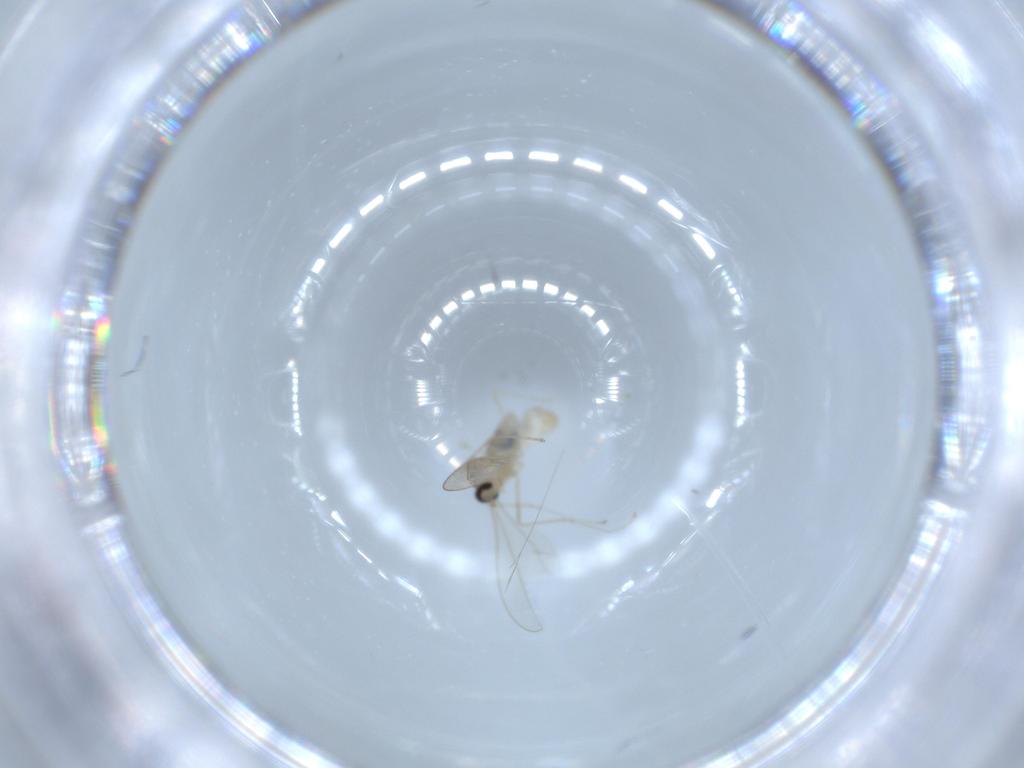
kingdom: Animalia
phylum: Arthropoda
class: Insecta
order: Diptera
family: Cecidomyiidae
